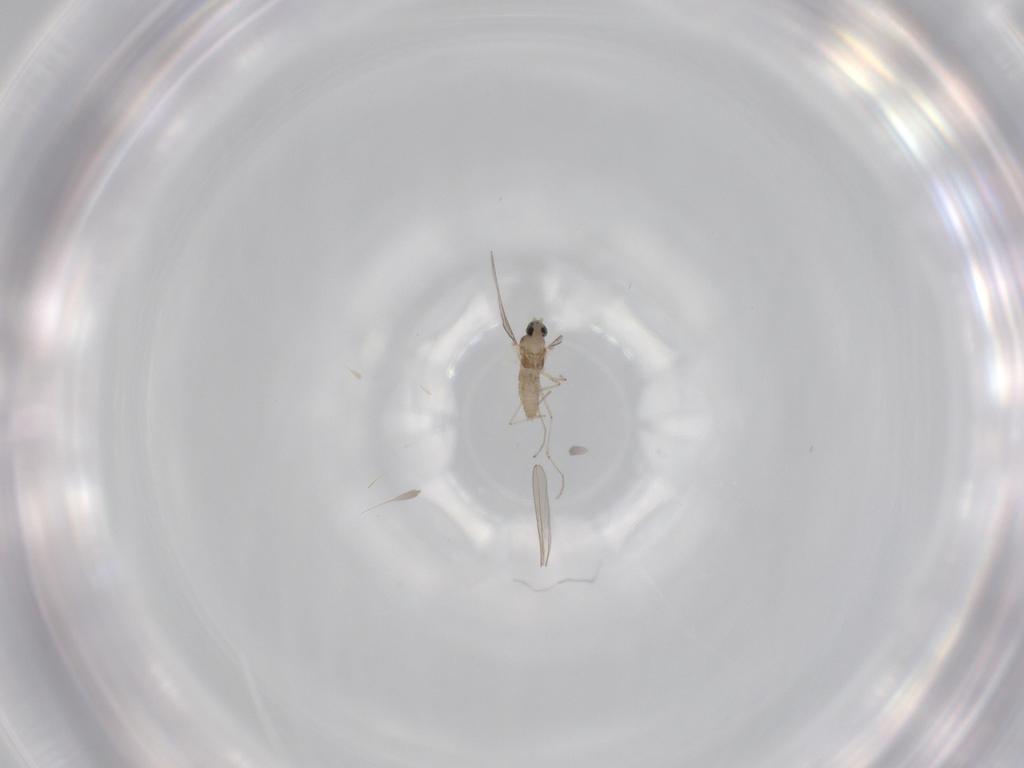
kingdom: Animalia
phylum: Arthropoda
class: Insecta
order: Diptera
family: Cecidomyiidae
